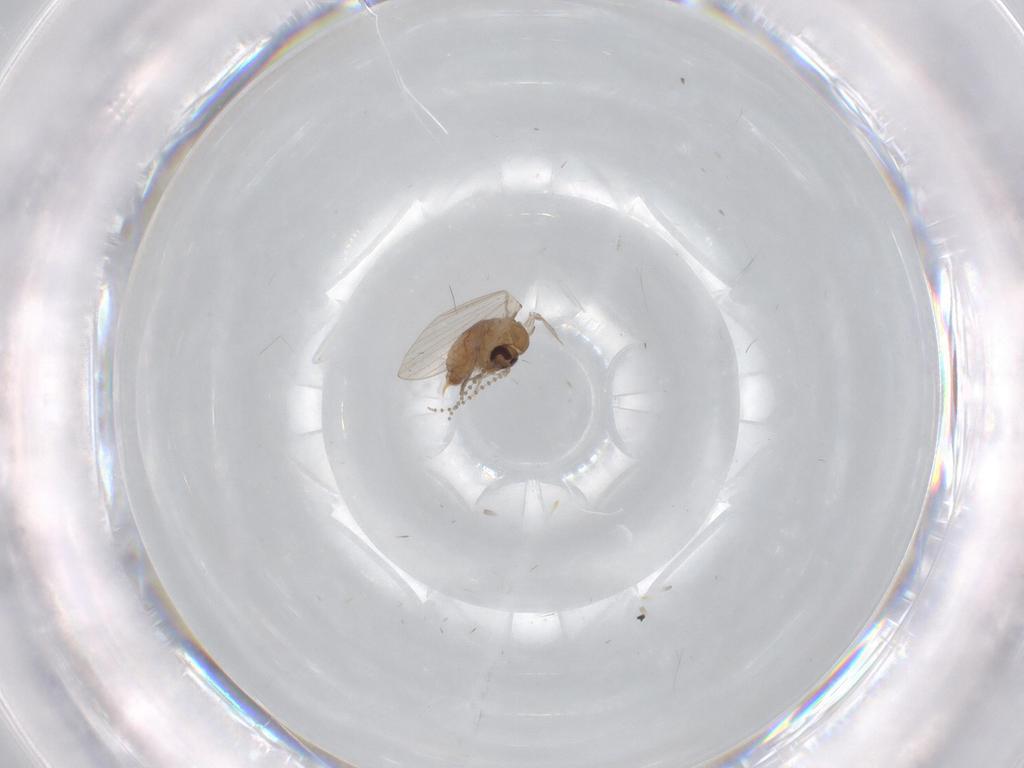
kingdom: Animalia
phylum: Arthropoda
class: Insecta
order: Diptera
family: Psychodidae
